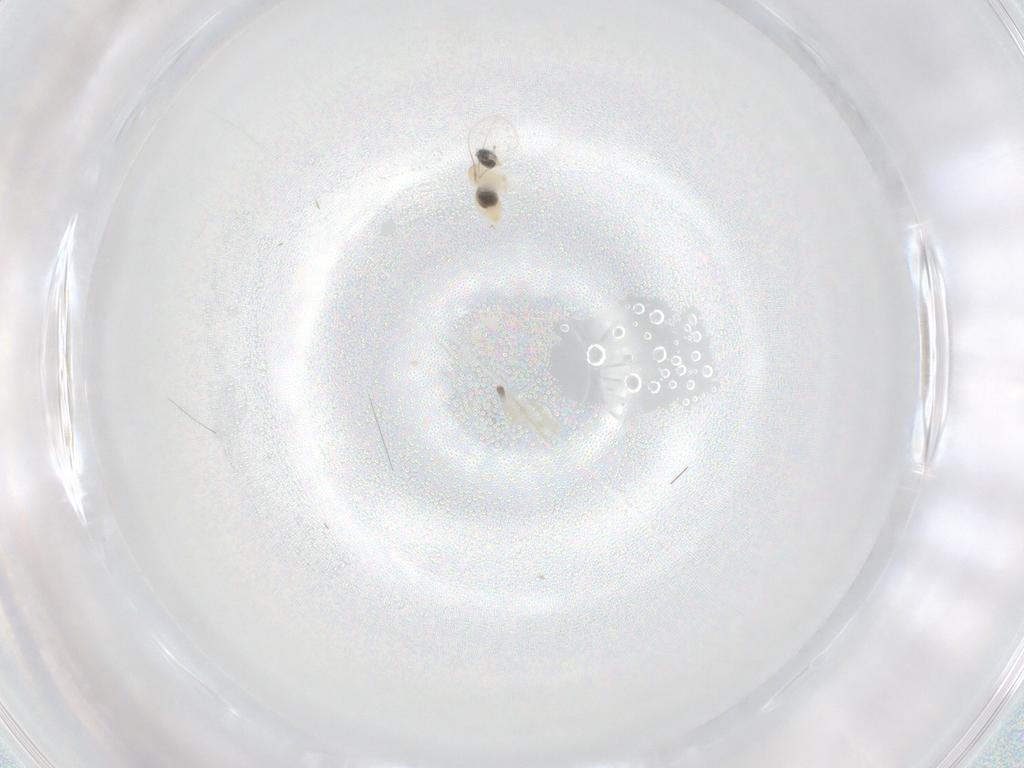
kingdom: Animalia
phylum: Arthropoda
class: Insecta
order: Diptera
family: Cecidomyiidae
